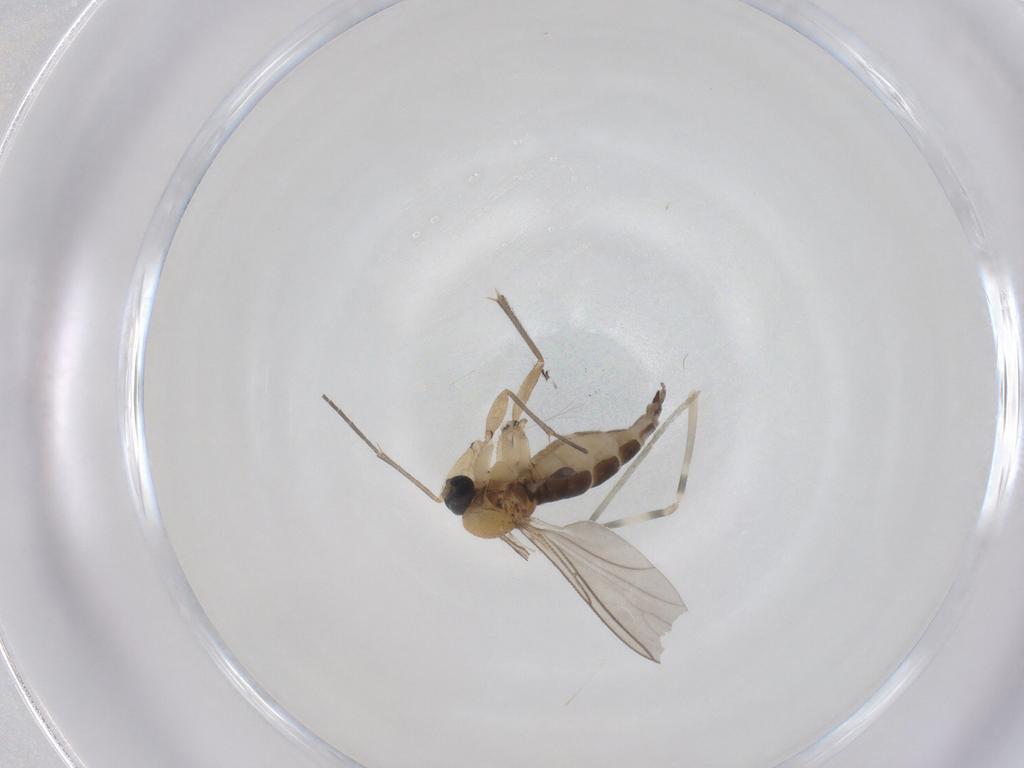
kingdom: Animalia
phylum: Arthropoda
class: Insecta
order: Diptera
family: Sciaridae
